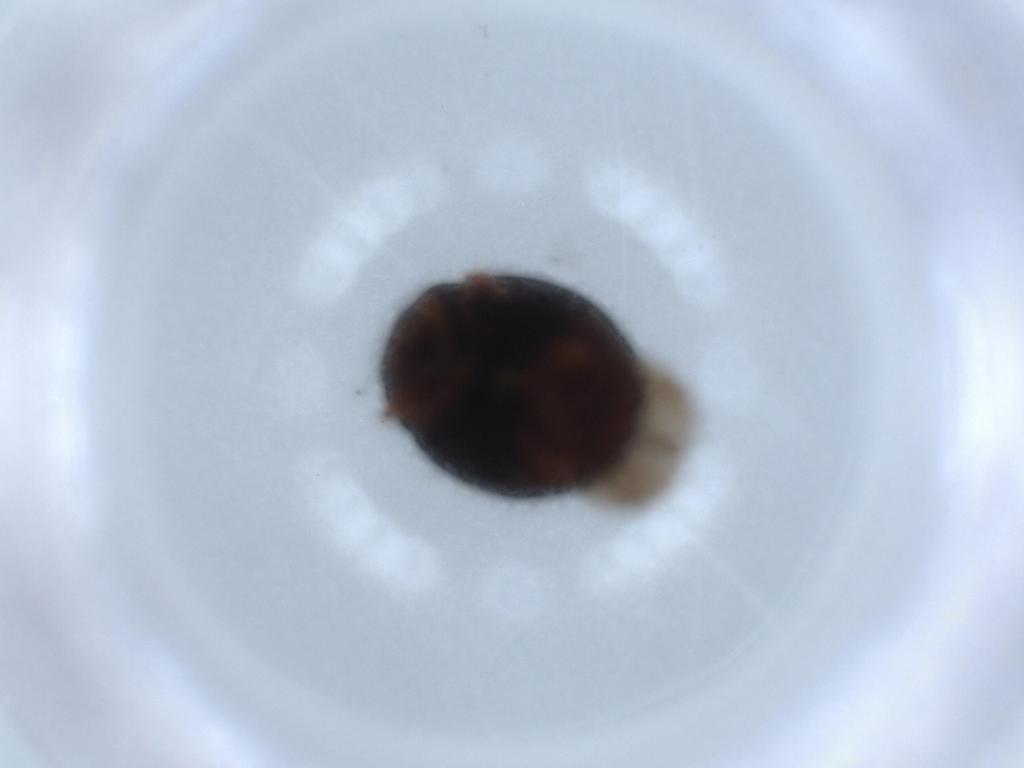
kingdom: Animalia
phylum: Arthropoda
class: Insecta
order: Coleoptera
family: Coccinellidae
